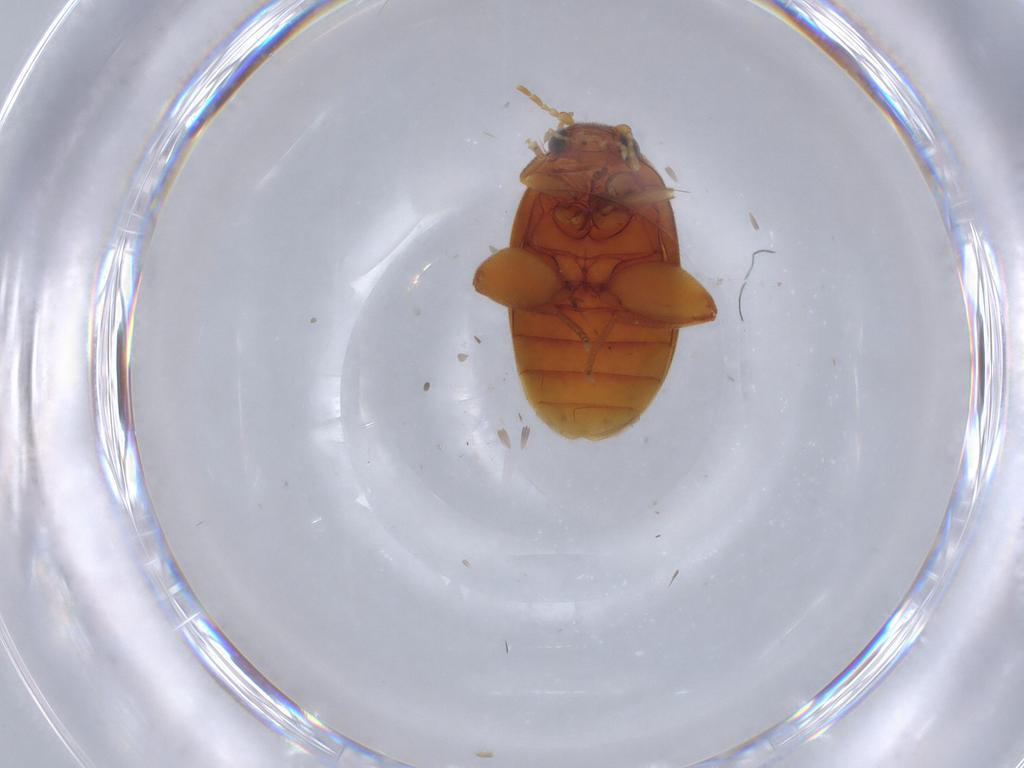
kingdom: Animalia
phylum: Arthropoda
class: Insecta
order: Coleoptera
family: Scirtidae
